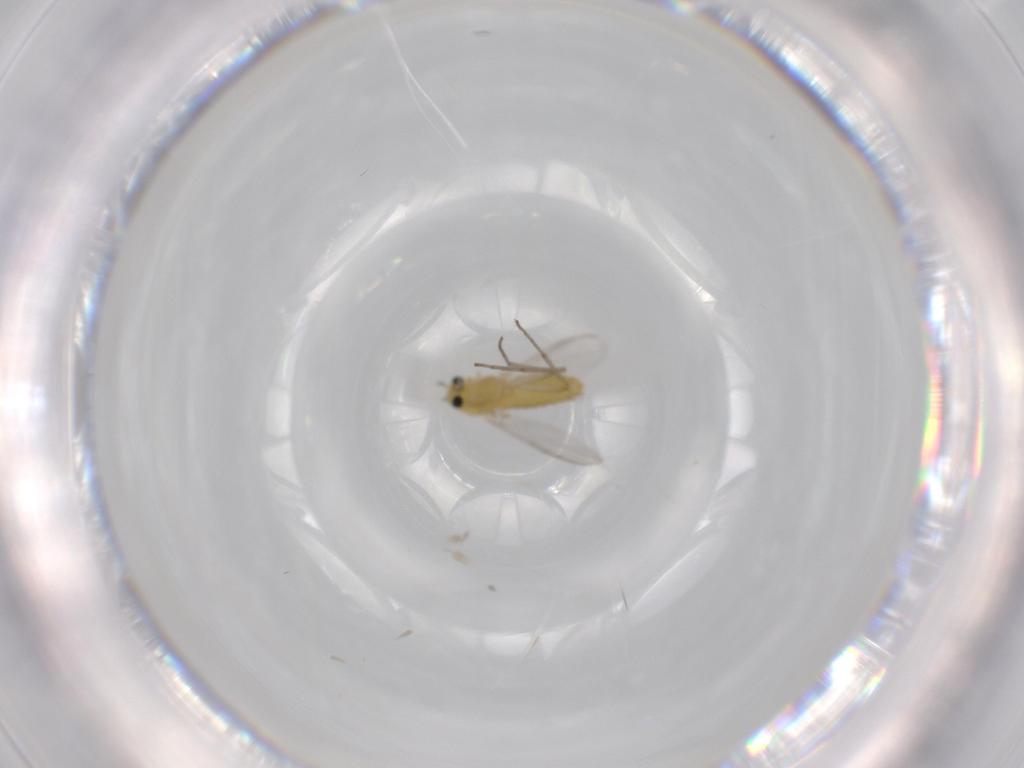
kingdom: Animalia
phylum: Arthropoda
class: Insecta
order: Diptera
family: Chironomidae
